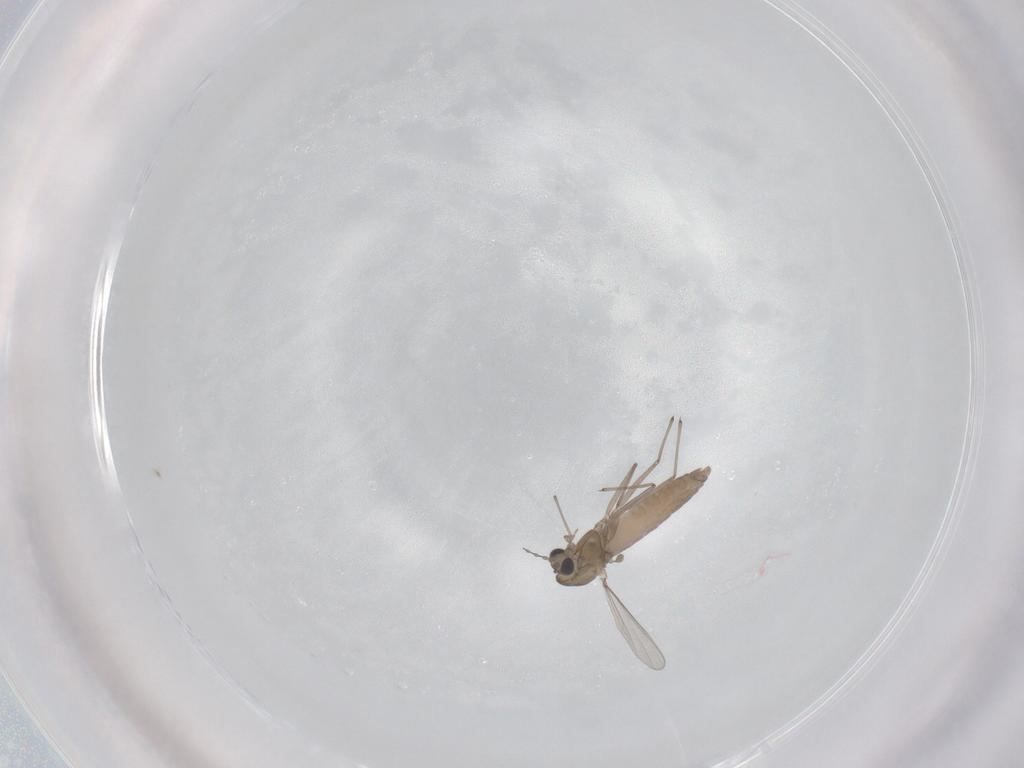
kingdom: Animalia
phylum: Arthropoda
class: Insecta
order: Diptera
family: Chironomidae
